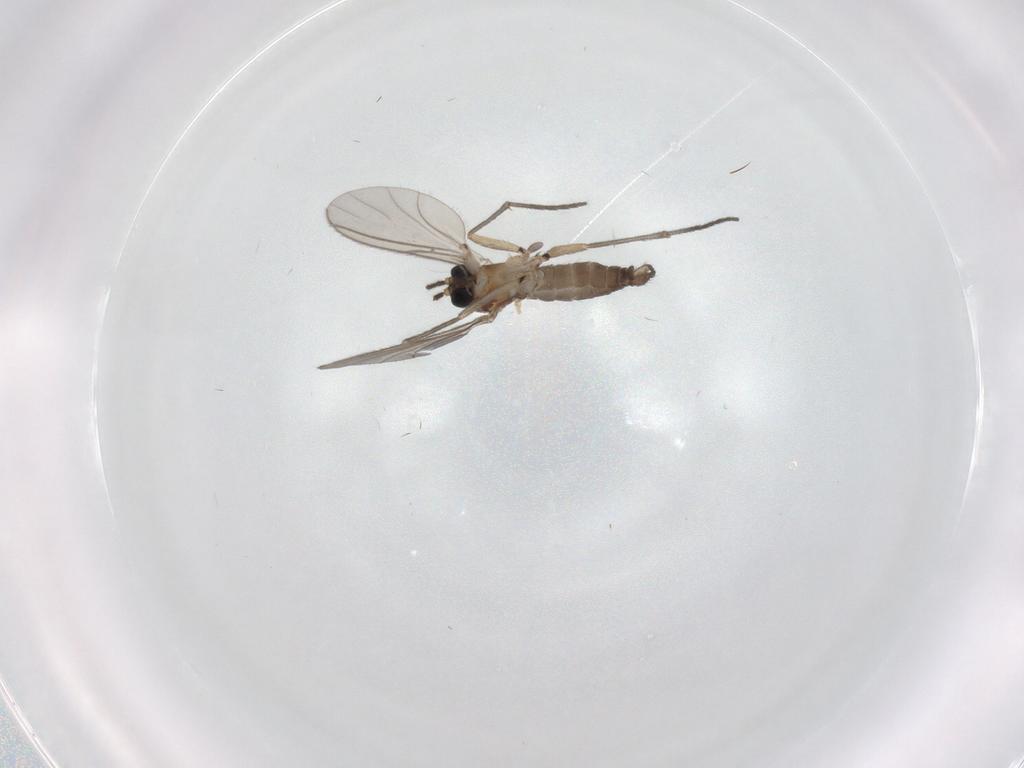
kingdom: Animalia
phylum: Arthropoda
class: Insecta
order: Diptera
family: Sciaridae
